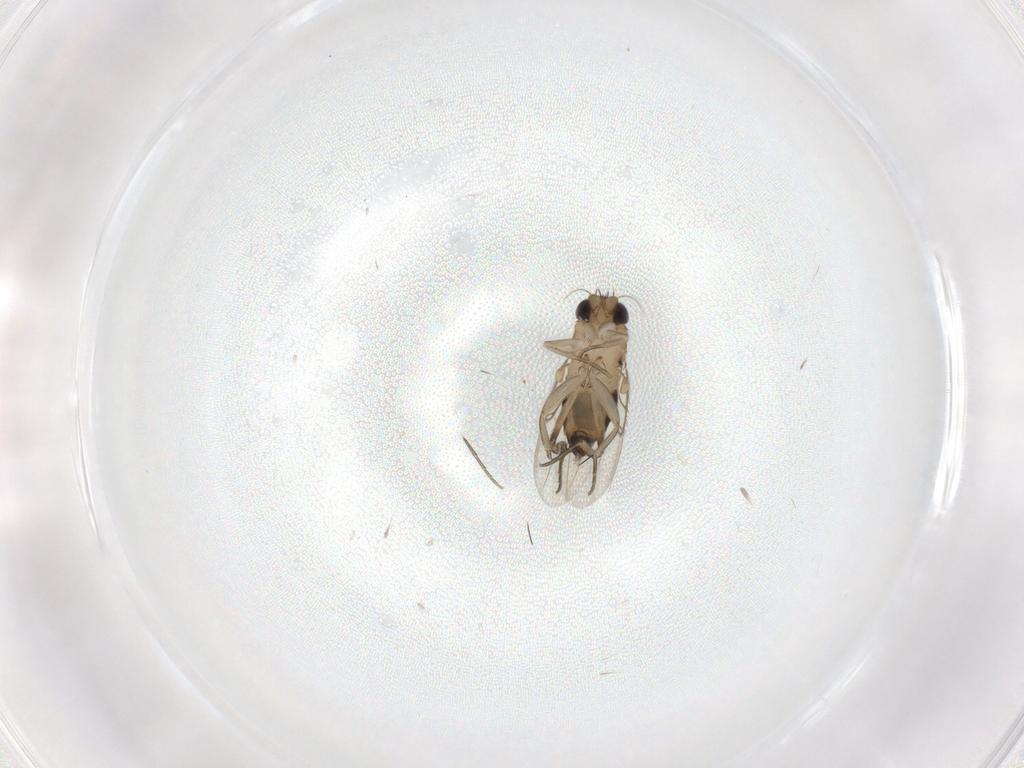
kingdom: Animalia
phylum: Arthropoda
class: Insecta
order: Diptera
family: Phoridae
